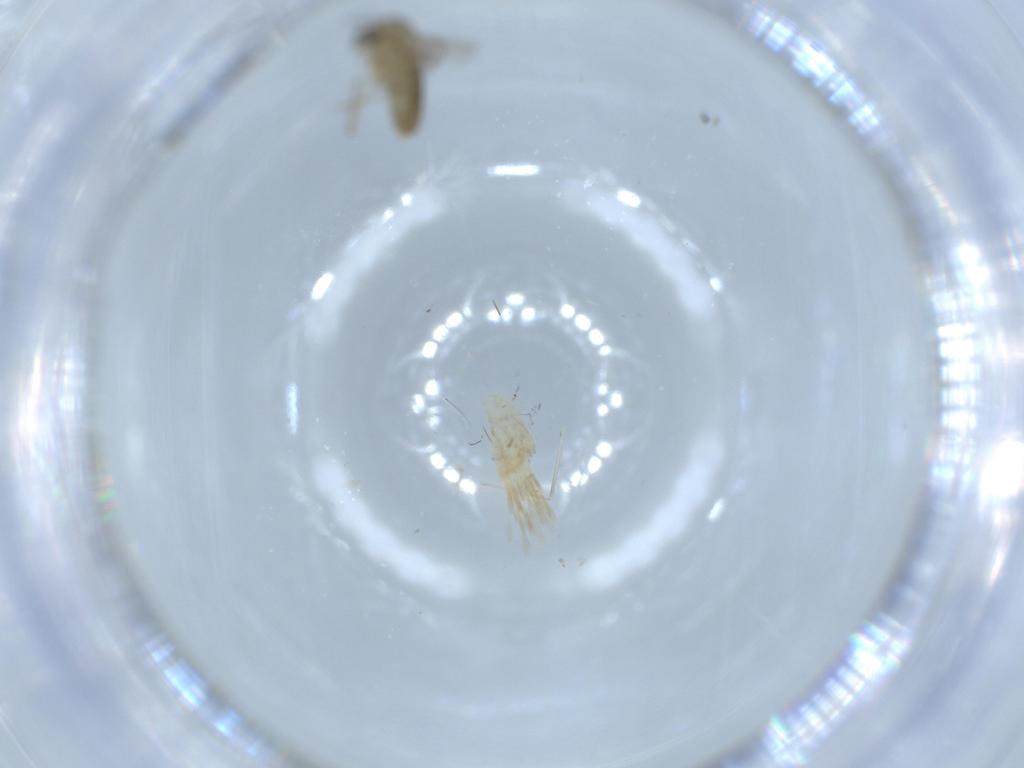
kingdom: Animalia
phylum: Arthropoda
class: Insecta
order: Diptera
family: Chironomidae
